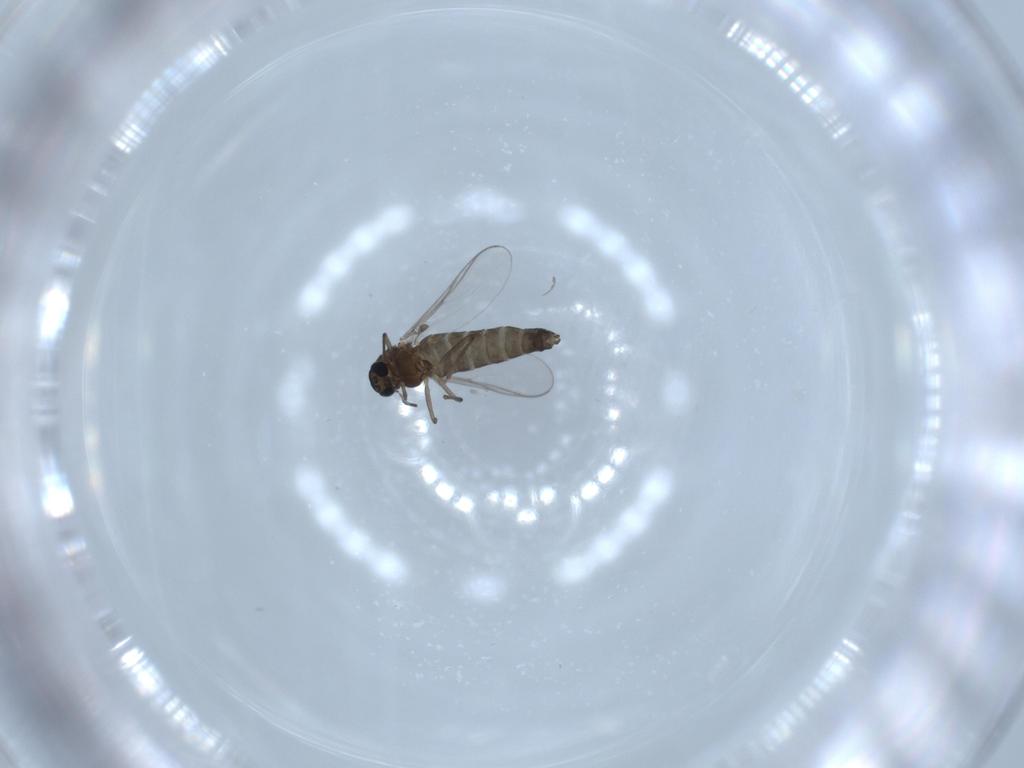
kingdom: Animalia
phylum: Arthropoda
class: Insecta
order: Diptera
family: Chironomidae
